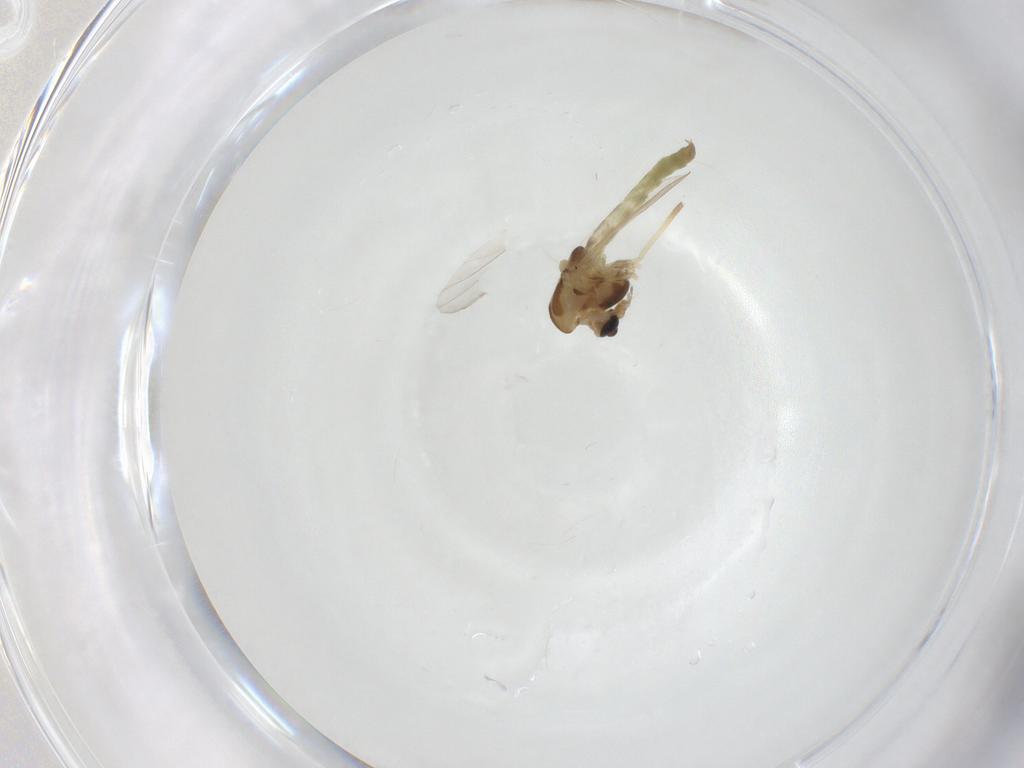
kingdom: Animalia
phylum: Arthropoda
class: Insecta
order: Diptera
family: Chironomidae
